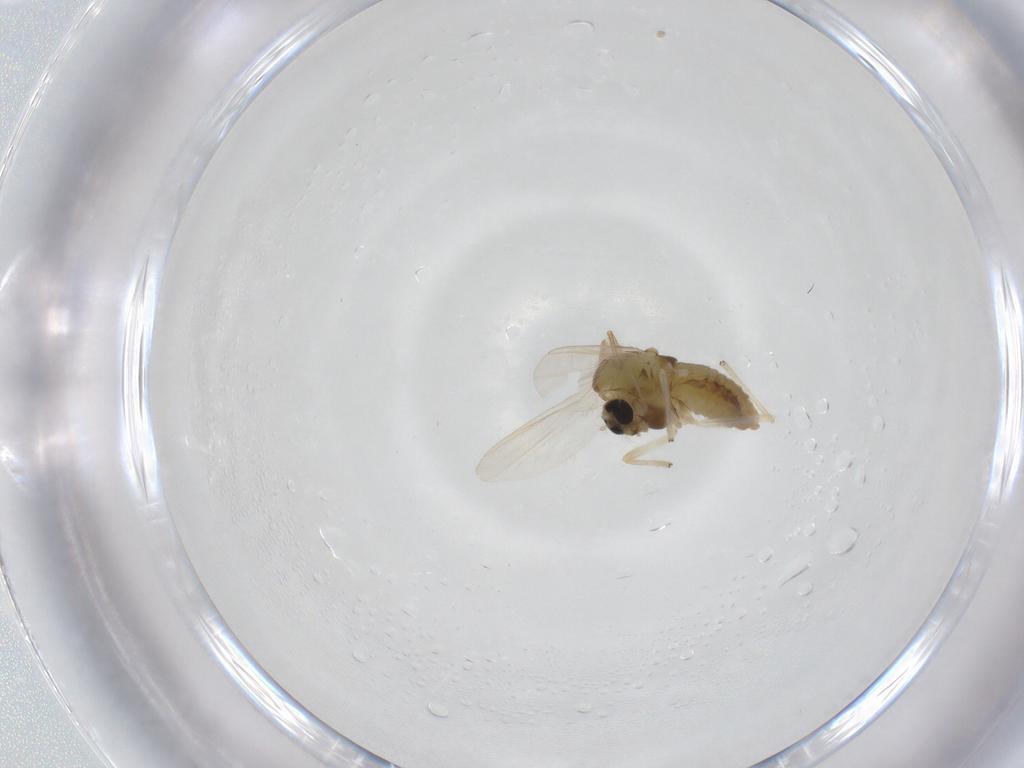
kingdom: Animalia
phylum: Arthropoda
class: Insecta
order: Diptera
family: Chironomidae
